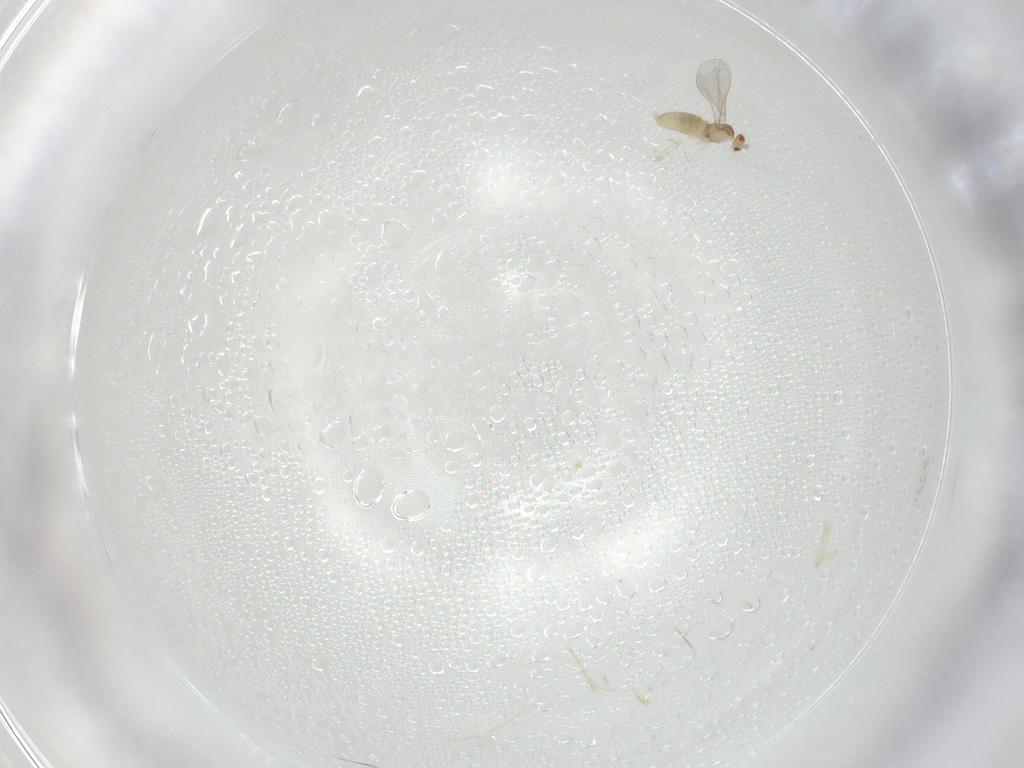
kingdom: Animalia
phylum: Arthropoda
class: Insecta
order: Diptera
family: Cecidomyiidae
